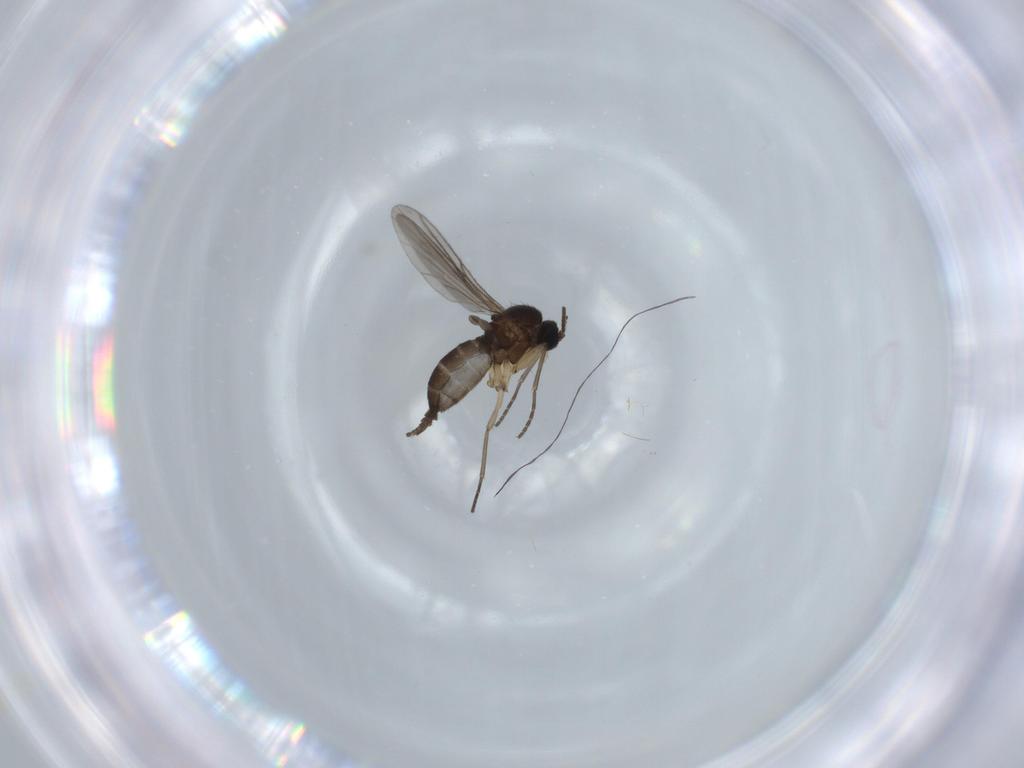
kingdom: Animalia
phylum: Arthropoda
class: Insecta
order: Diptera
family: Sciaridae
